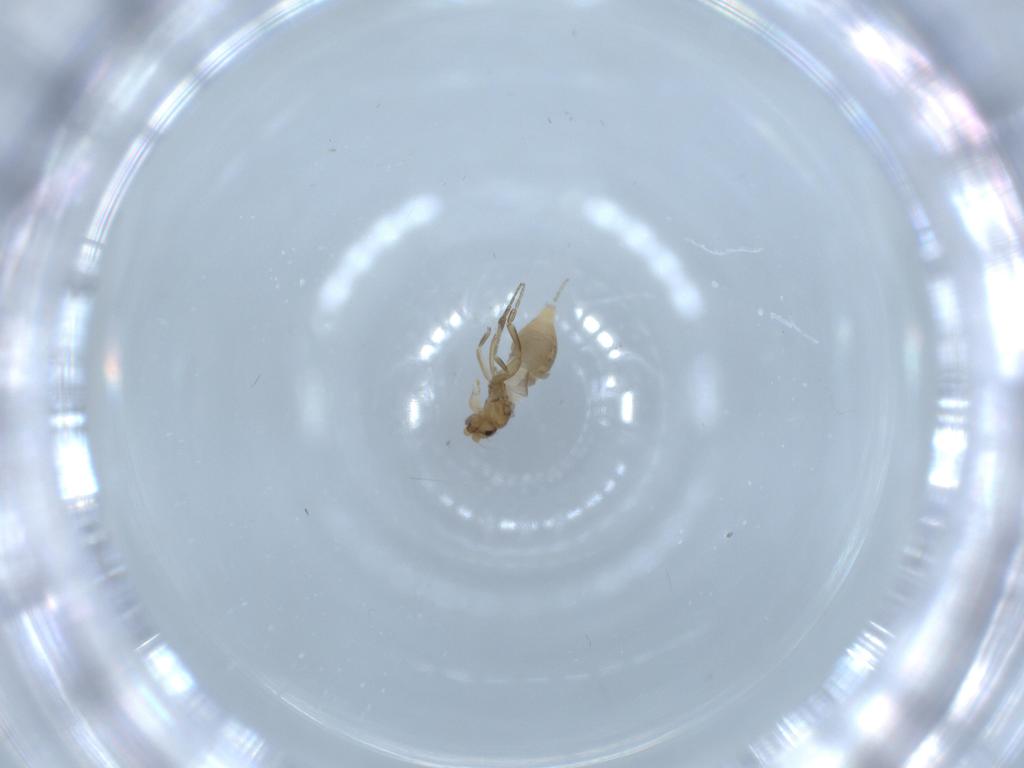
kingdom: Animalia
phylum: Arthropoda
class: Insecta
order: Diptera
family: Phoridae
